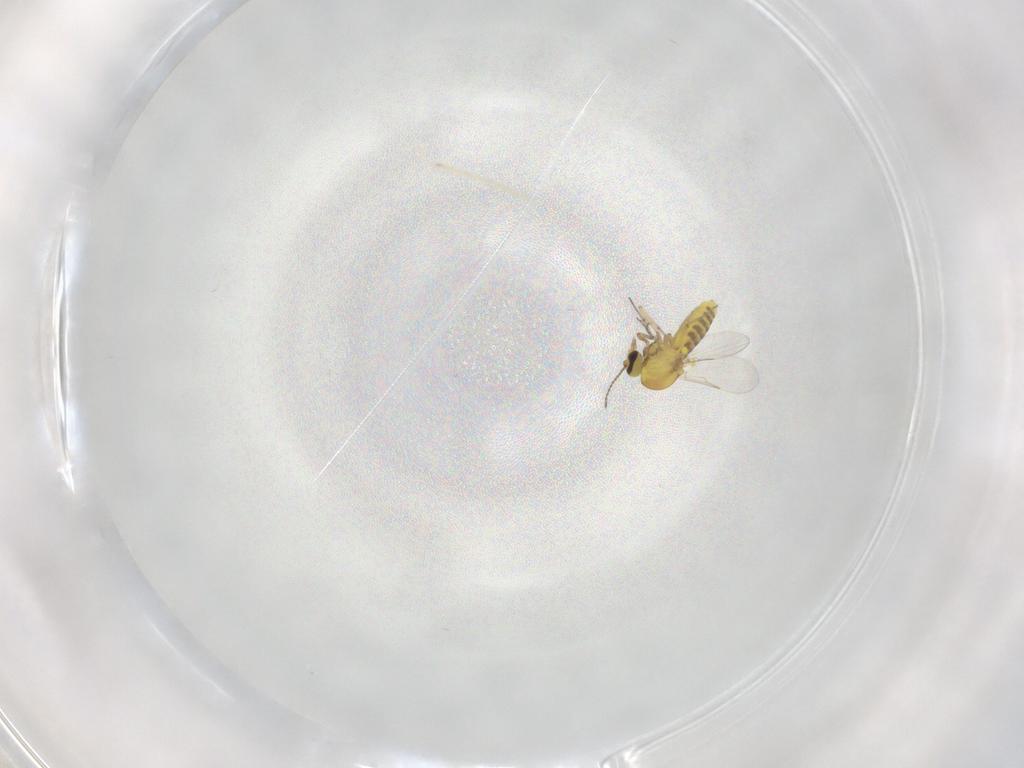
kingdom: Animalia
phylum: Arthropoda
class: Insecta
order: Diptera
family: Ceratopogonidae
